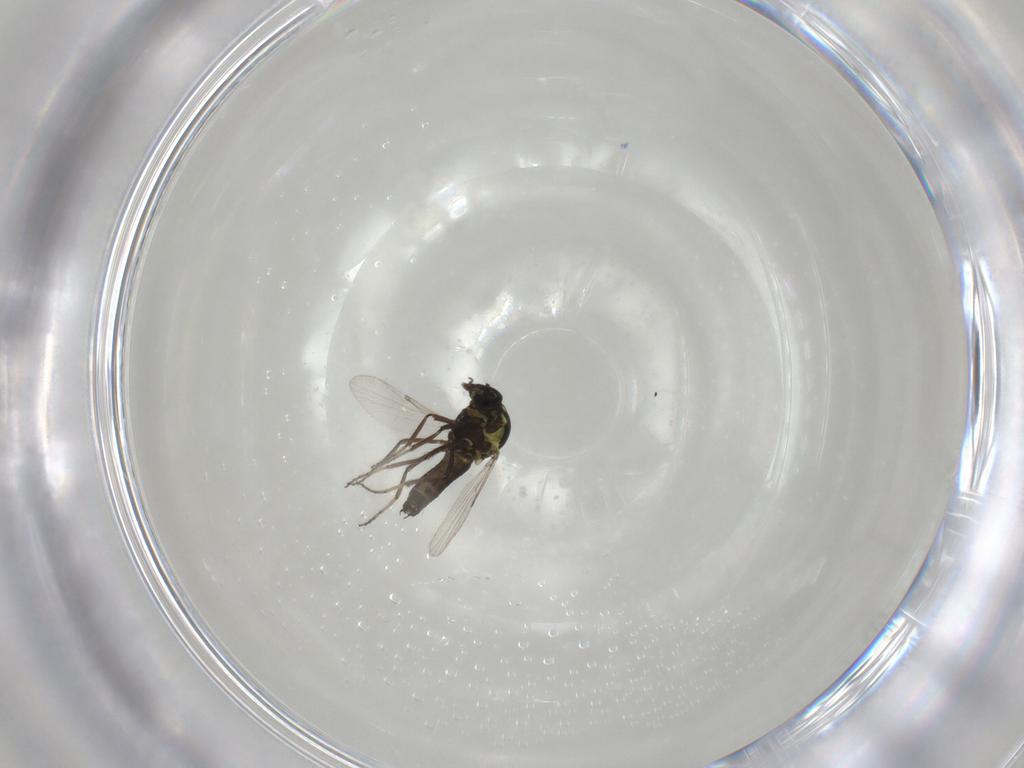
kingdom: Animalia
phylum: Arthropoda
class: Insecta
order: Diptera
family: Ceratopogonidae
